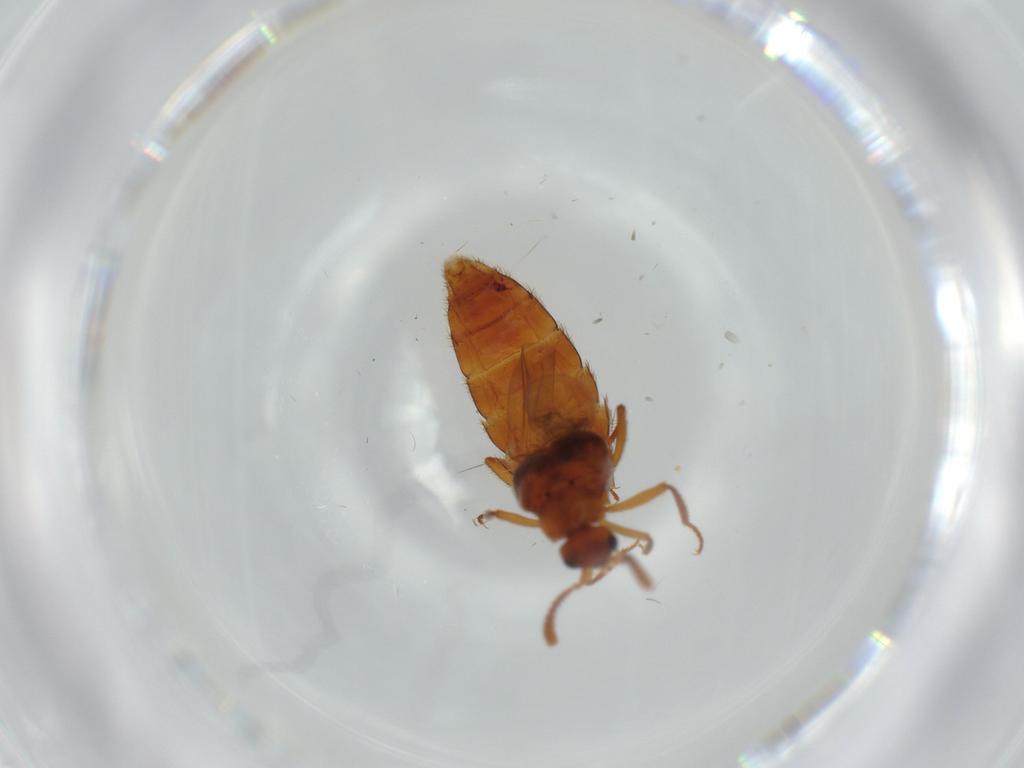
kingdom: Animalia
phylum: Arthropoda
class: Insecta
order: Coleoptera
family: Staphylinidae
